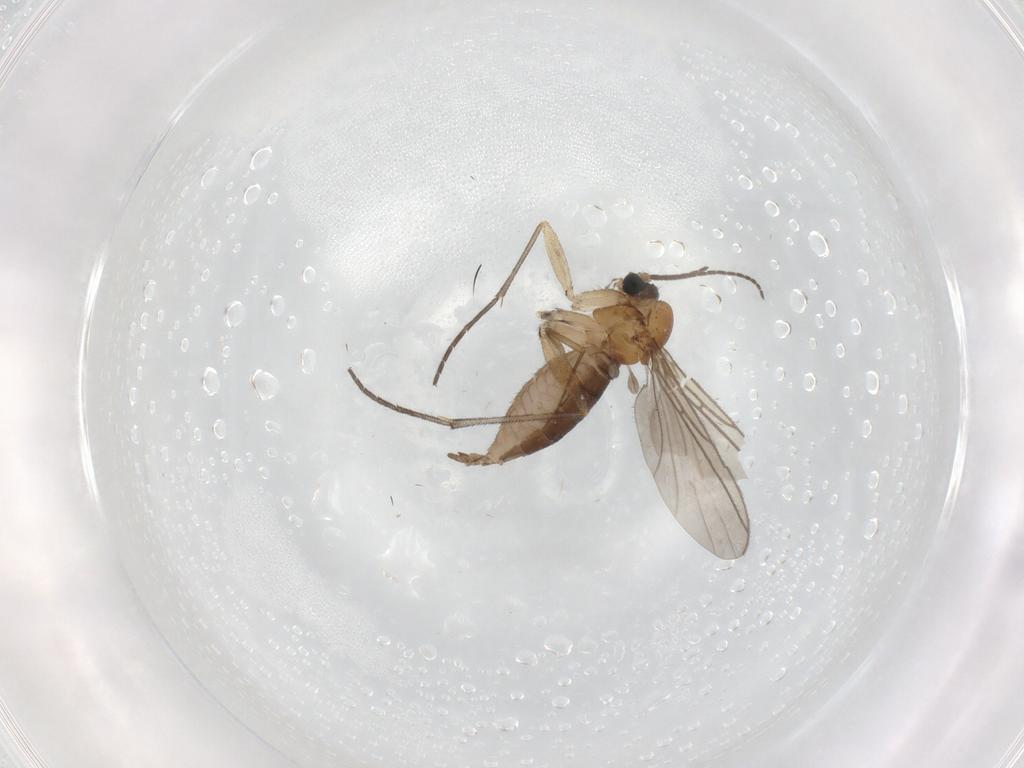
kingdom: Animalia
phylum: Arthropoda
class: Insecta
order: Diptera
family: Sciaridae
